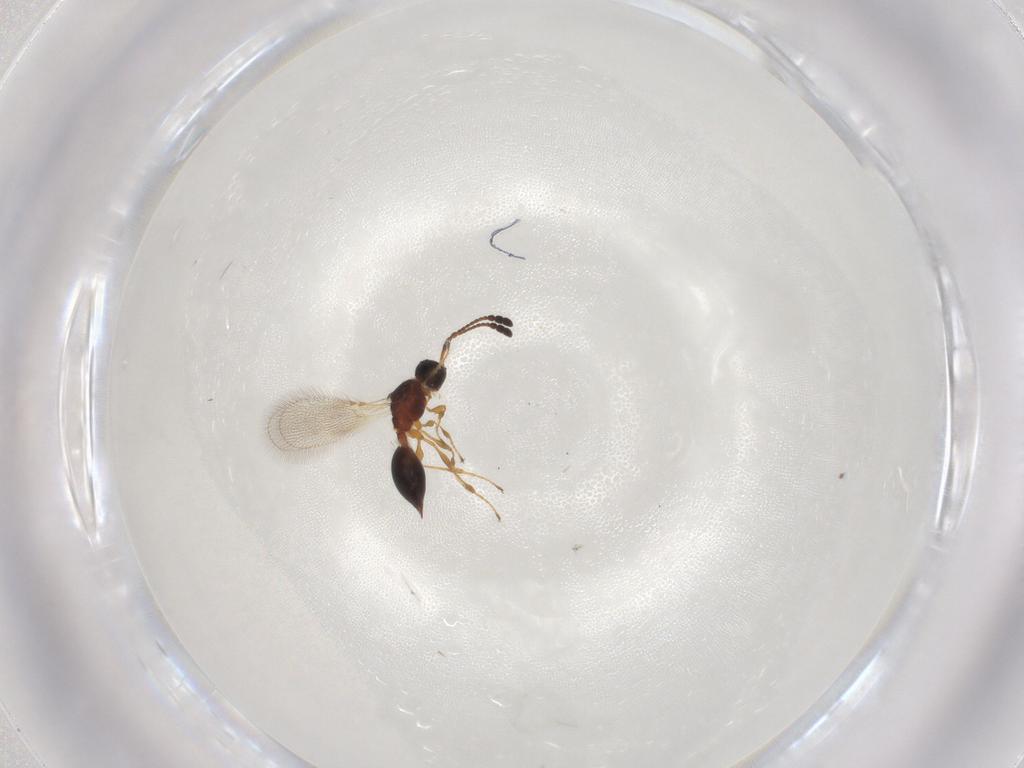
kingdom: Animalia
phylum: Arthropoda
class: Insecta
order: Hymenoptera
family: Diapriidae
